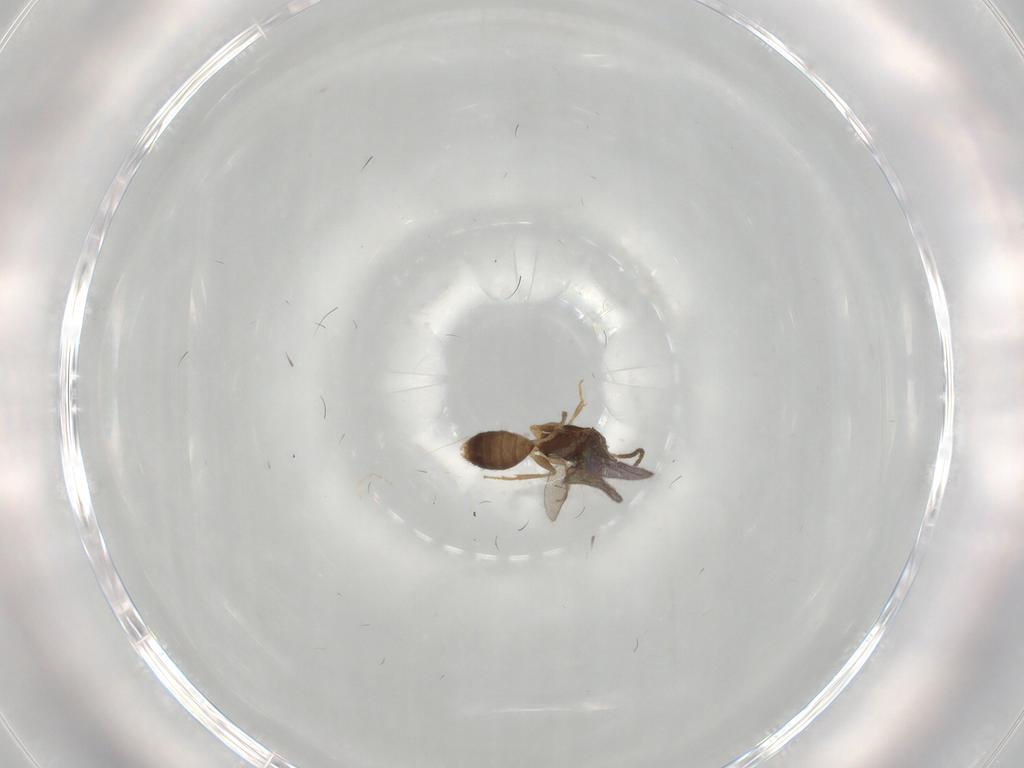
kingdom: Animalia
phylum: Arthropoda
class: Insecta
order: Hymenoptera
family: Bethylidae
